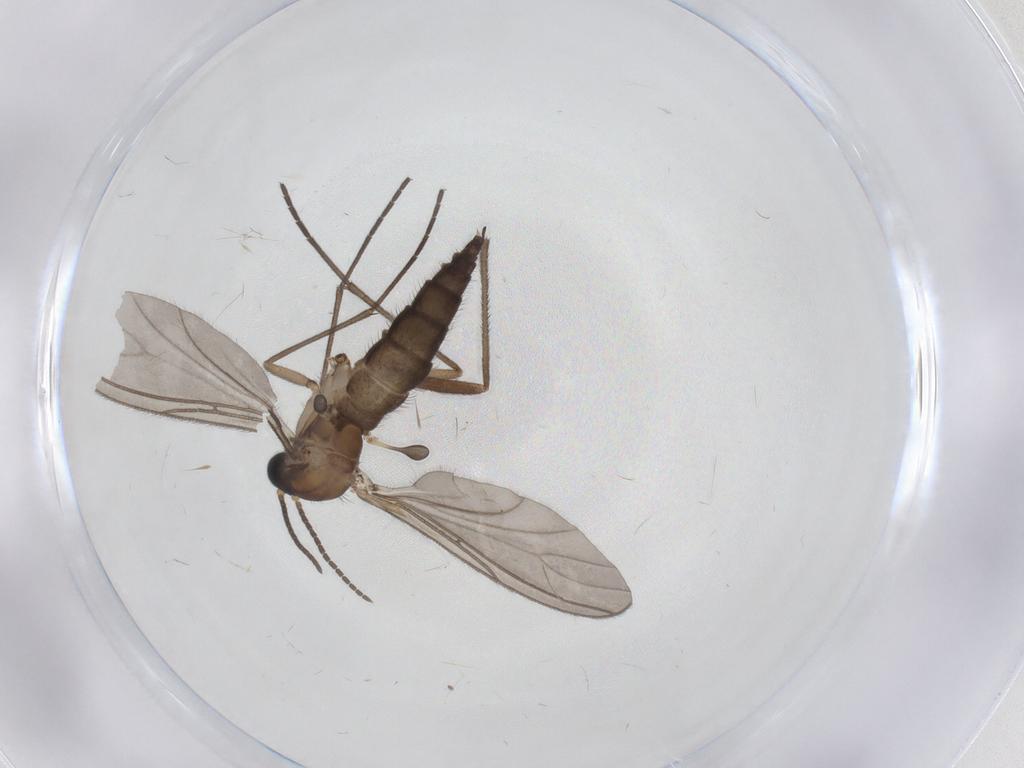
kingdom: Animalia
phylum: Arthropoda
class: Insecta
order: Diptera
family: Sciaridae
